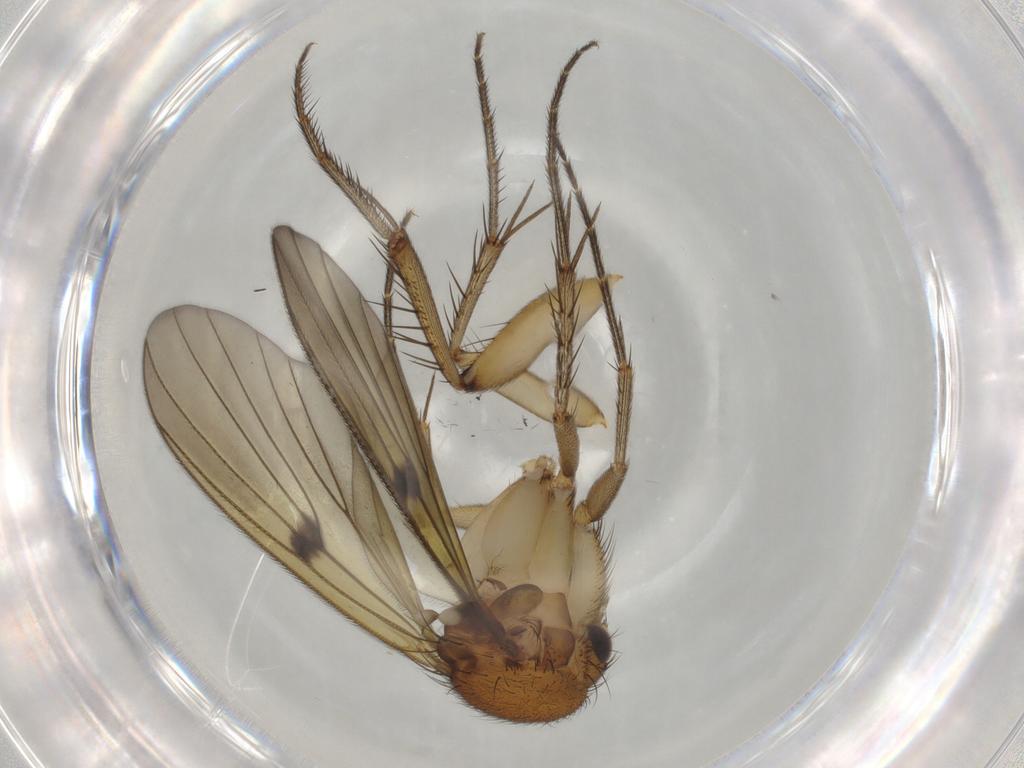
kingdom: Animalia
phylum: Arthropoda
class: Insecta
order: Diptera
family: Mycetophilidae
